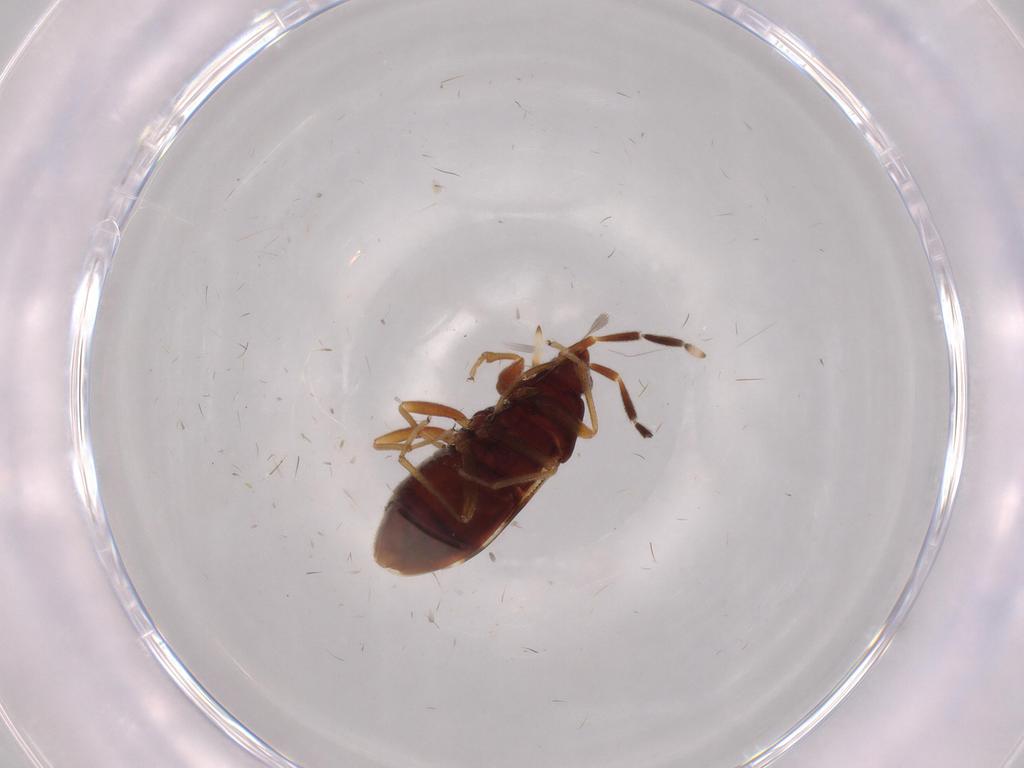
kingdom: Animalia
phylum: Arthropoda
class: Insecta
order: Hemiptera
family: Rhyparochromidae
